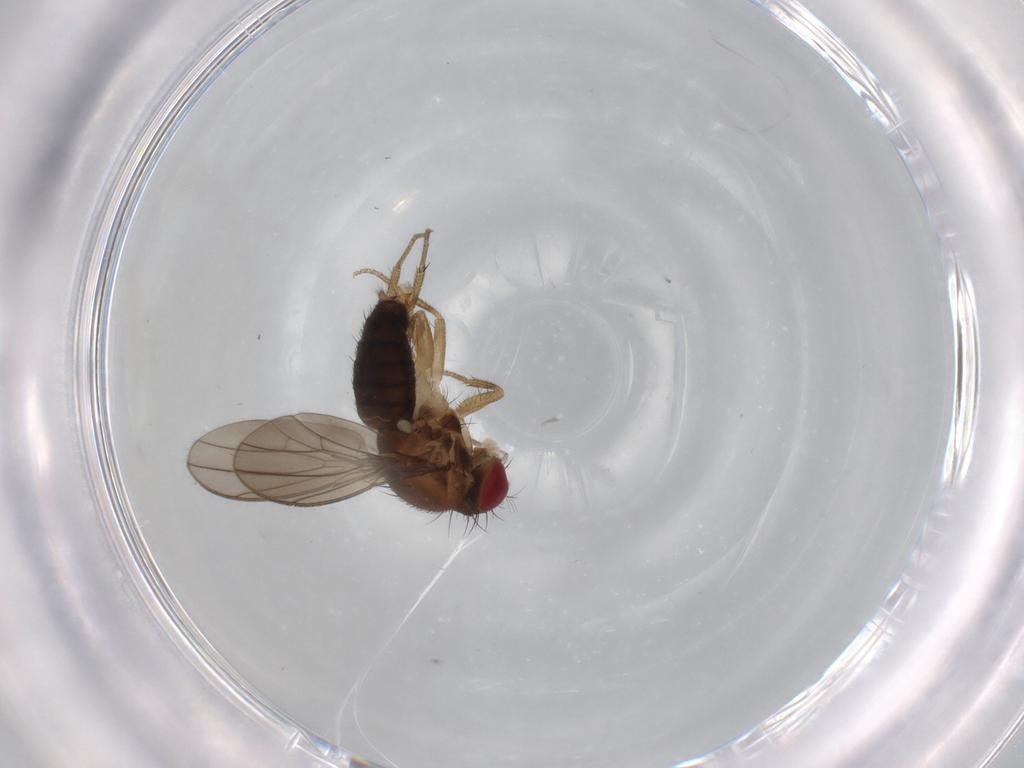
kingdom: Animalia
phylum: Arthropoda
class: Insecta
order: Diptera
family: Drosophilidae
